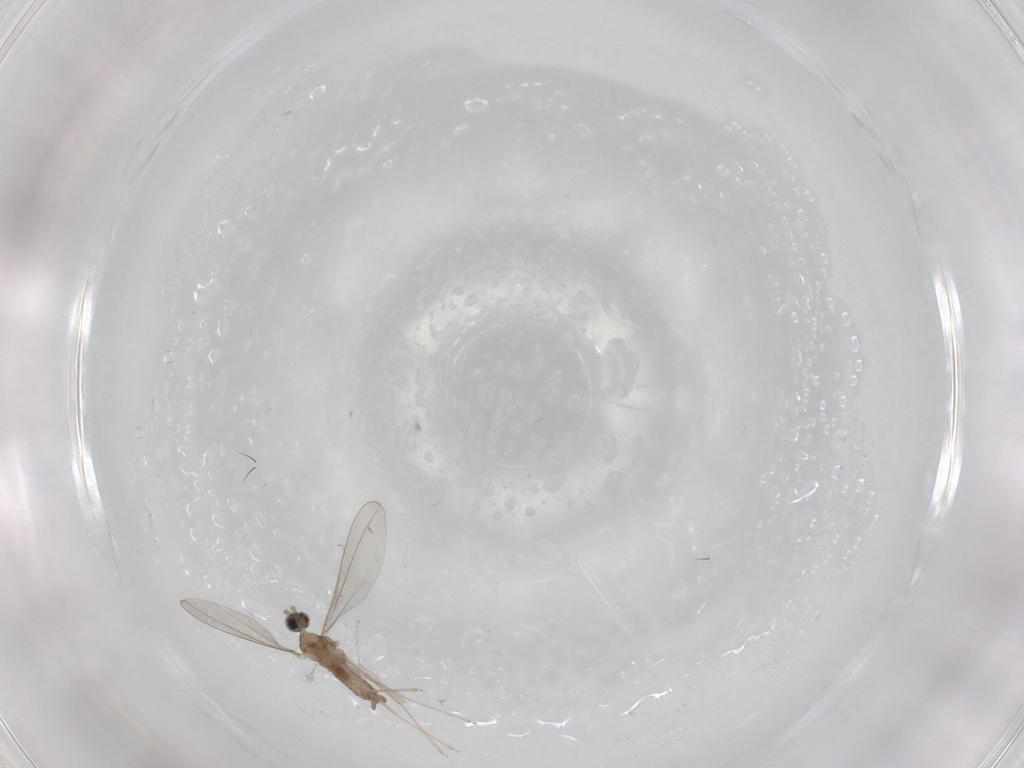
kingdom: Animalia
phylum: Arthropoda
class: Insecta
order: Diptera
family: Cecidomyiidae
